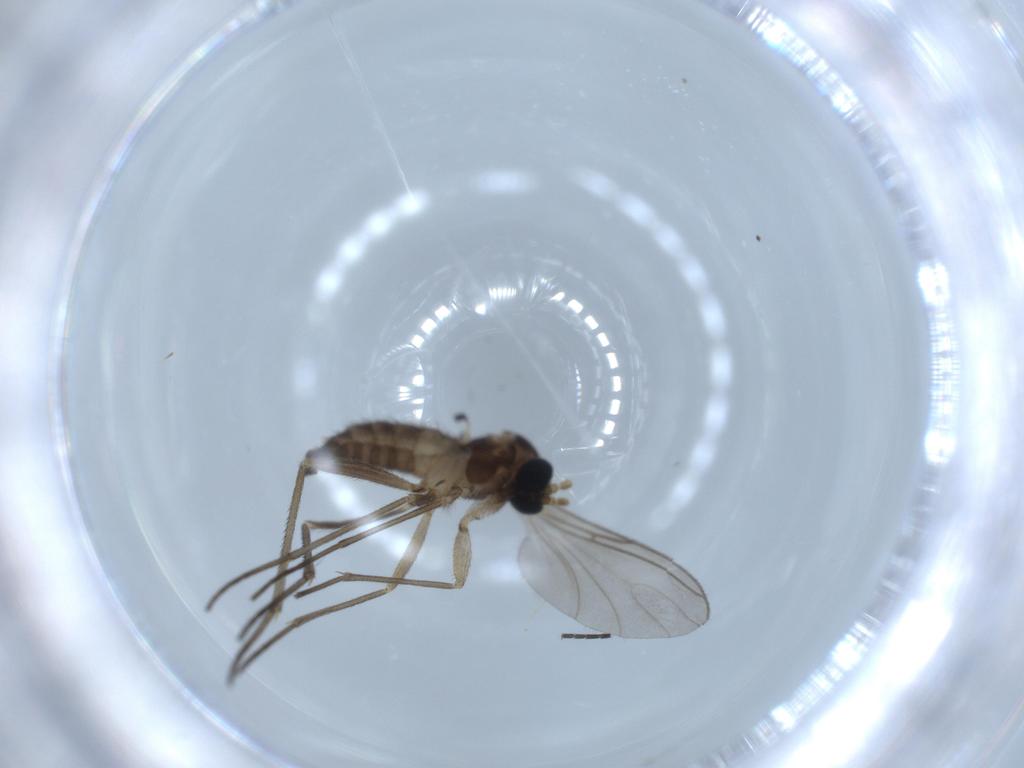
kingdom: Animalia
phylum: Arthropoda
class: Insecta
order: Diptera
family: Sciaridae
